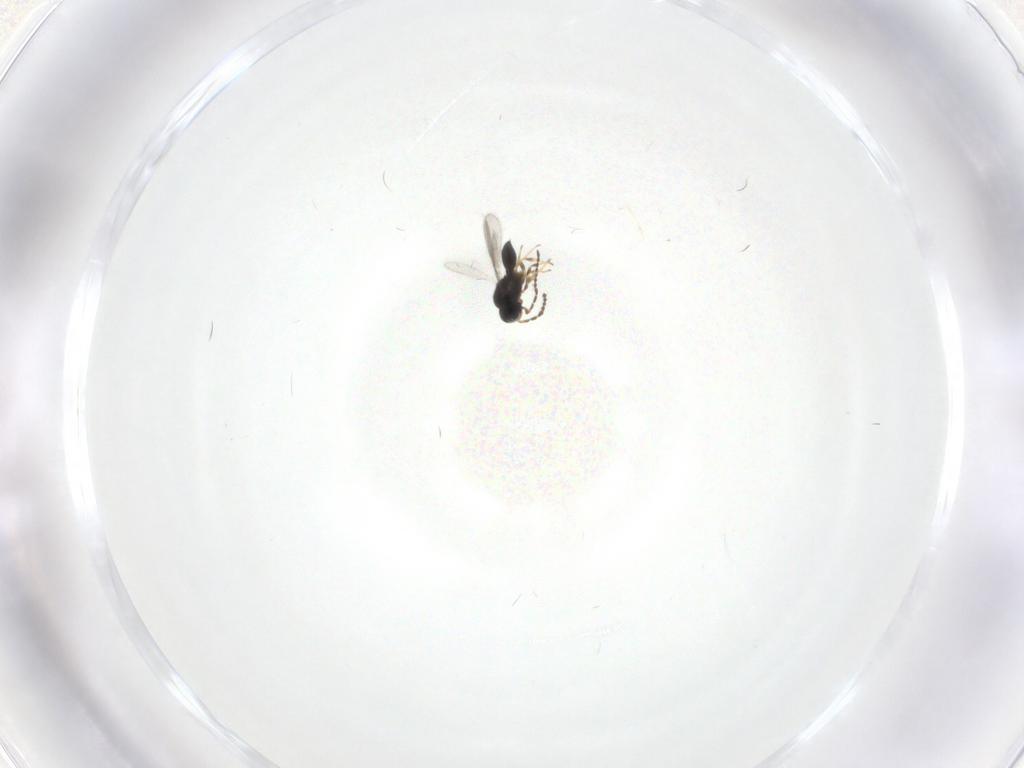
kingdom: Animalia
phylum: Arthropoda
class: Insecta
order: Hymenoptera
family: Scelionidae
